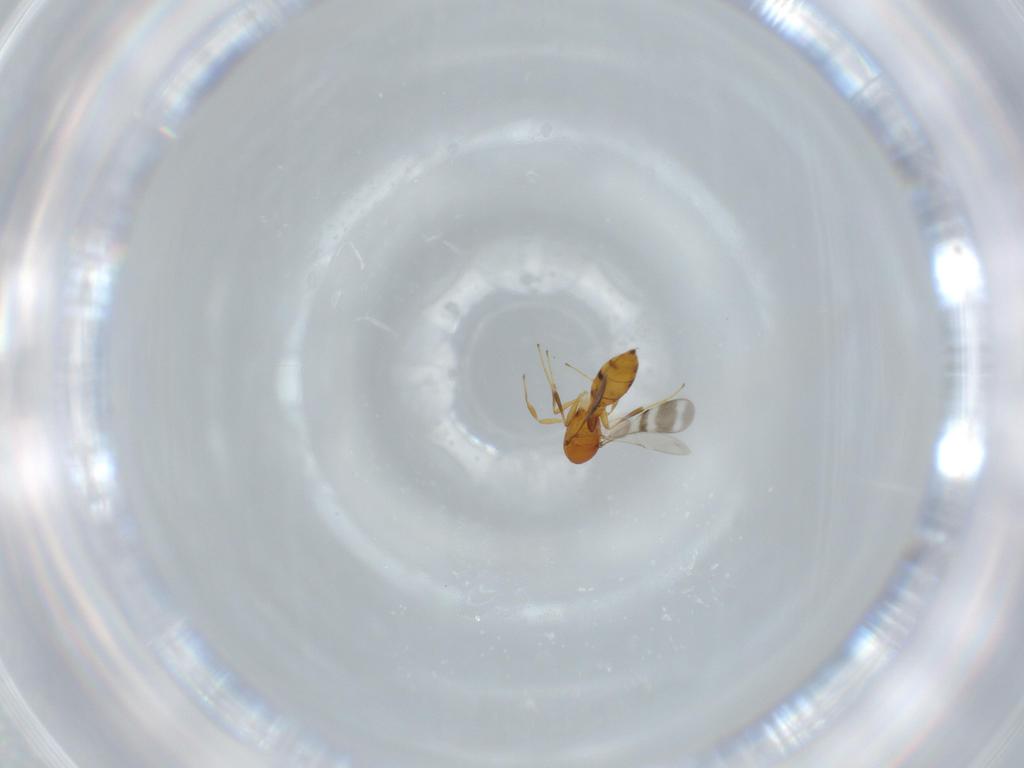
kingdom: Animalia
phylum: Arthropoda
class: Insecta
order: Hymenoptera
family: Scelionidae
